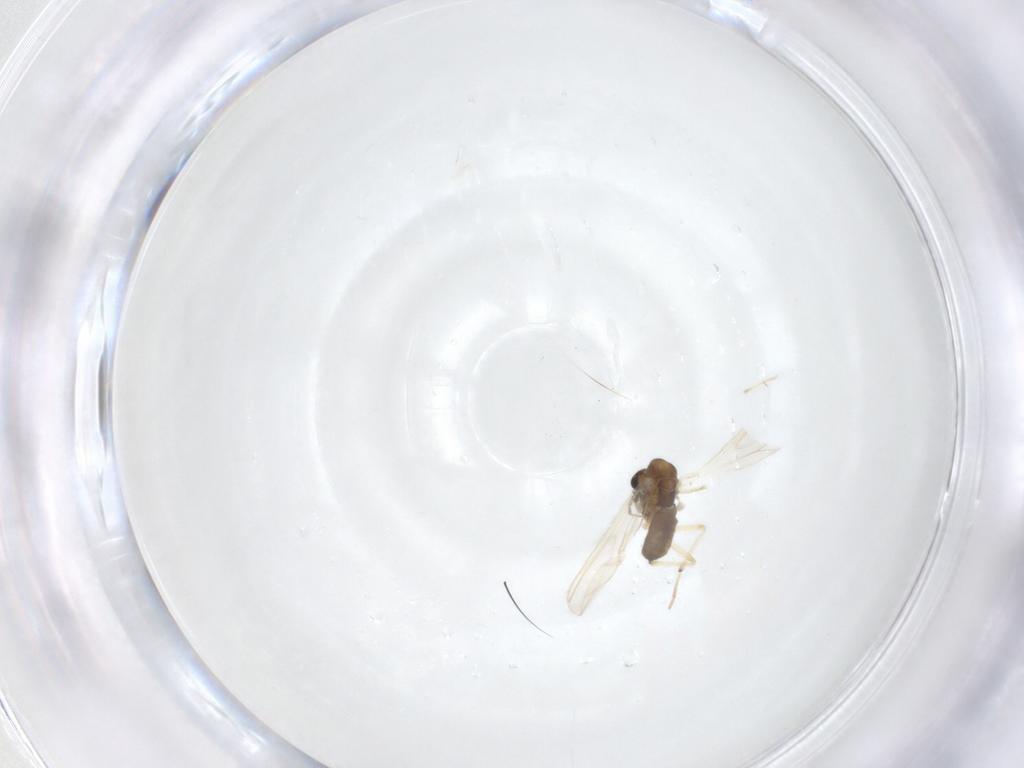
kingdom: Animalia
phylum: Arthropoda
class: Insecta
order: Diptera
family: Chironomidae
